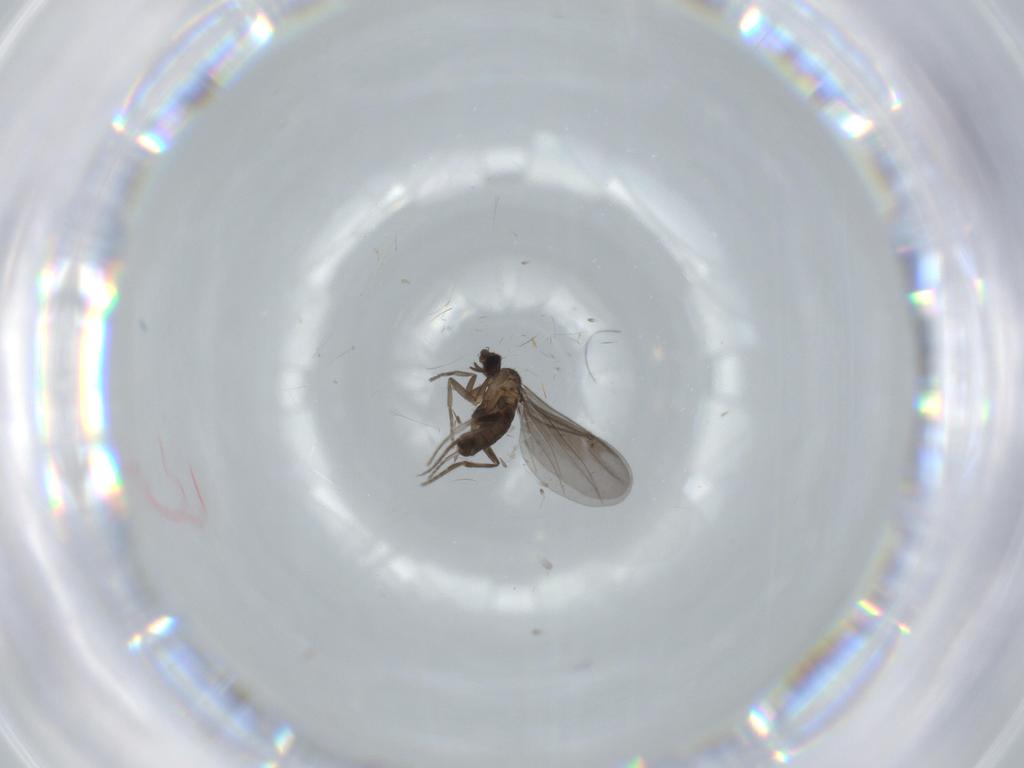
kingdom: Animalia
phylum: Arthropoda
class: Insecta
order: Diptera
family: Phoridae
